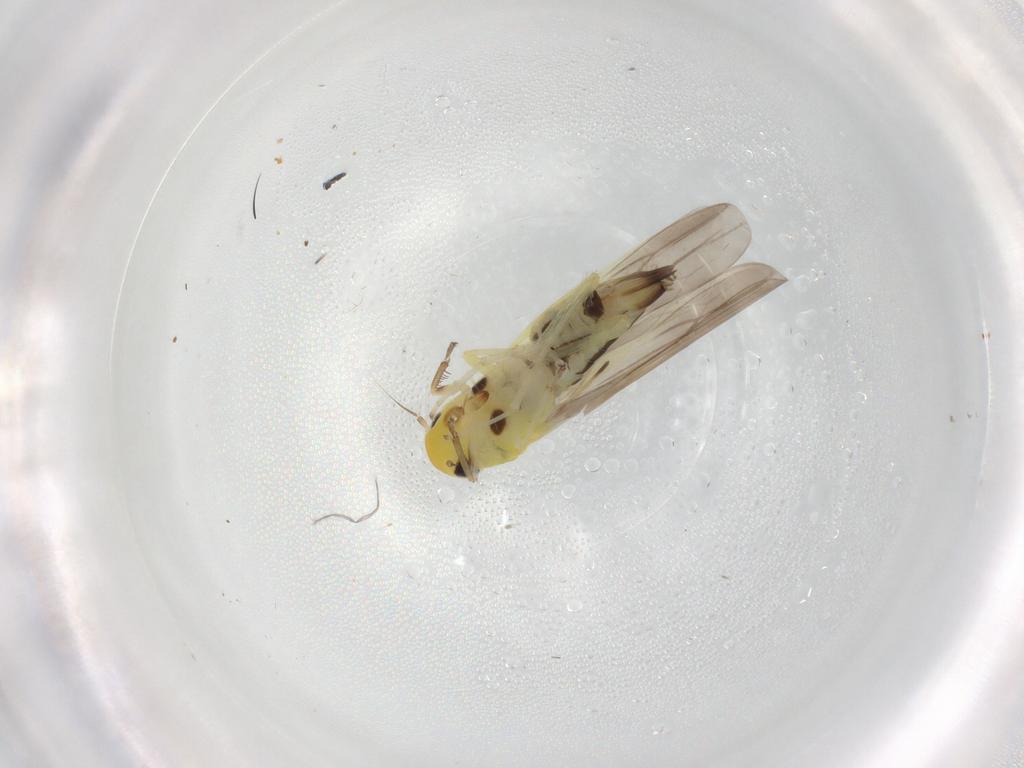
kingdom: Animalia
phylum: Arthropoda
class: Insecta
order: Hemiptera
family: Cicadellidae
